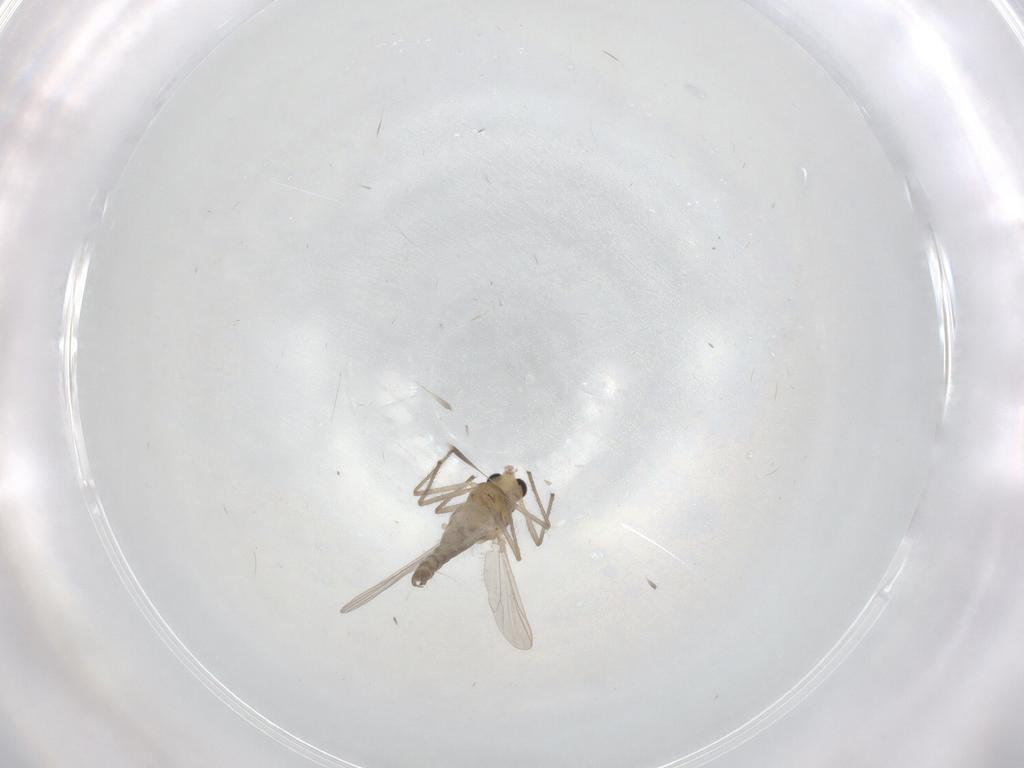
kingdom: Animalia
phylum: Arthropoda
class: Insecta
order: Diptera
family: Chironomidae
